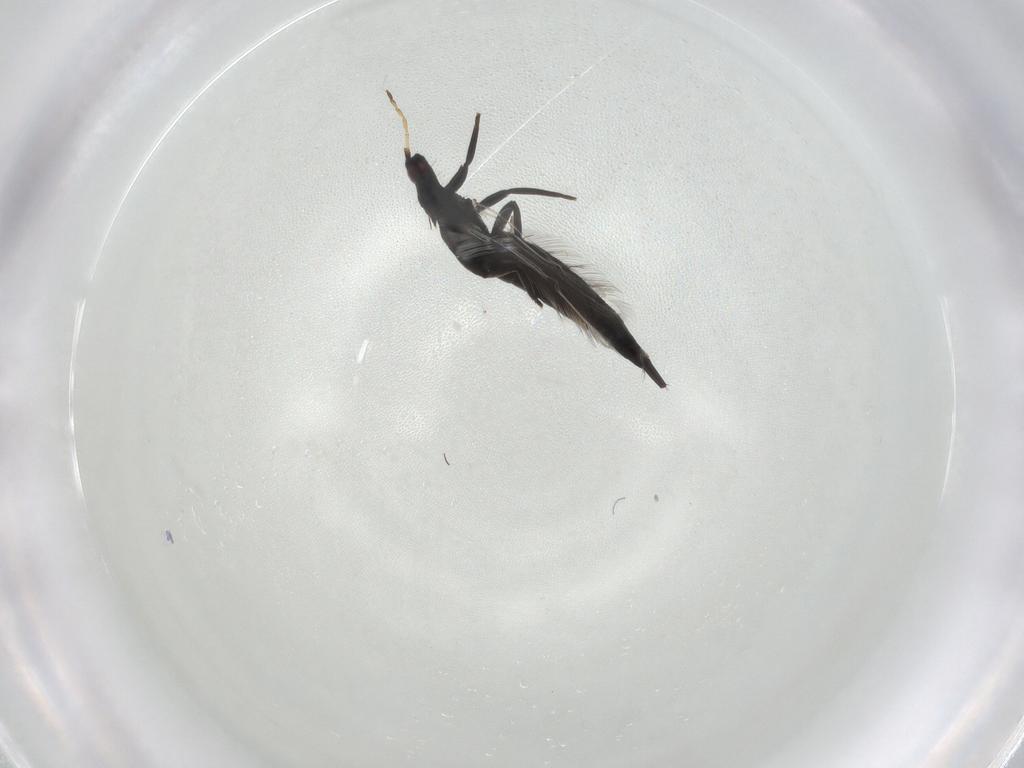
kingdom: Animalia
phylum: Arthropoda
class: Insecta
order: Thysanoptera
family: Phlaeothripidae
